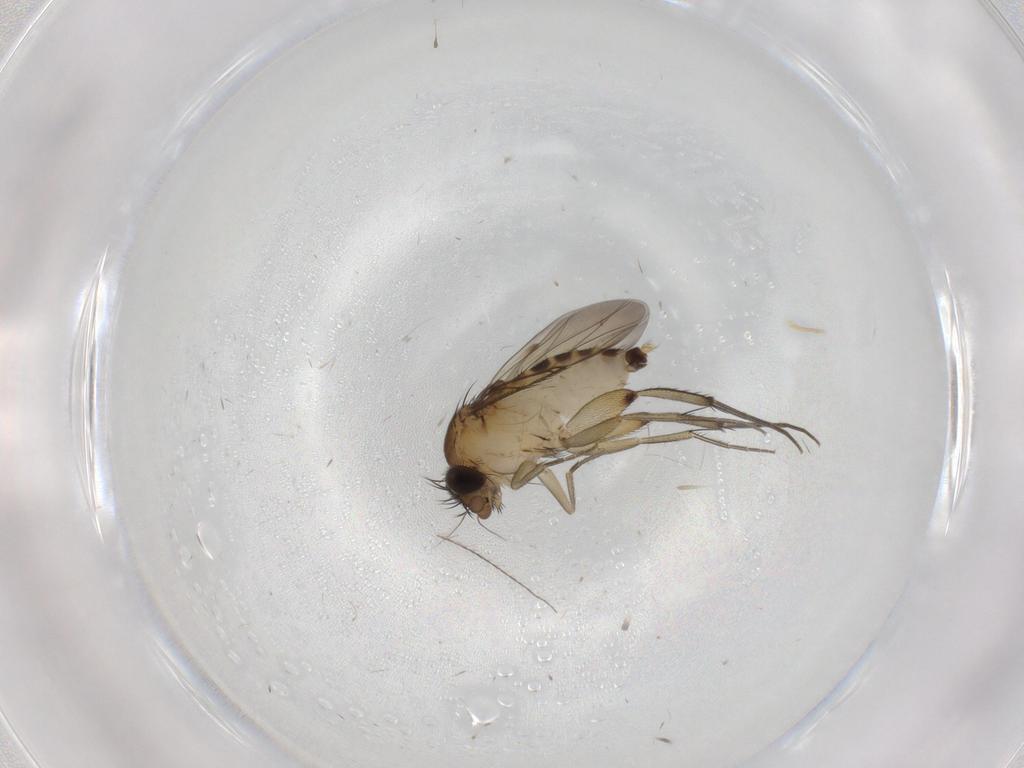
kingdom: Animalia
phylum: Arthropoda
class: Insecta
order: Diptera
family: Phoridae
